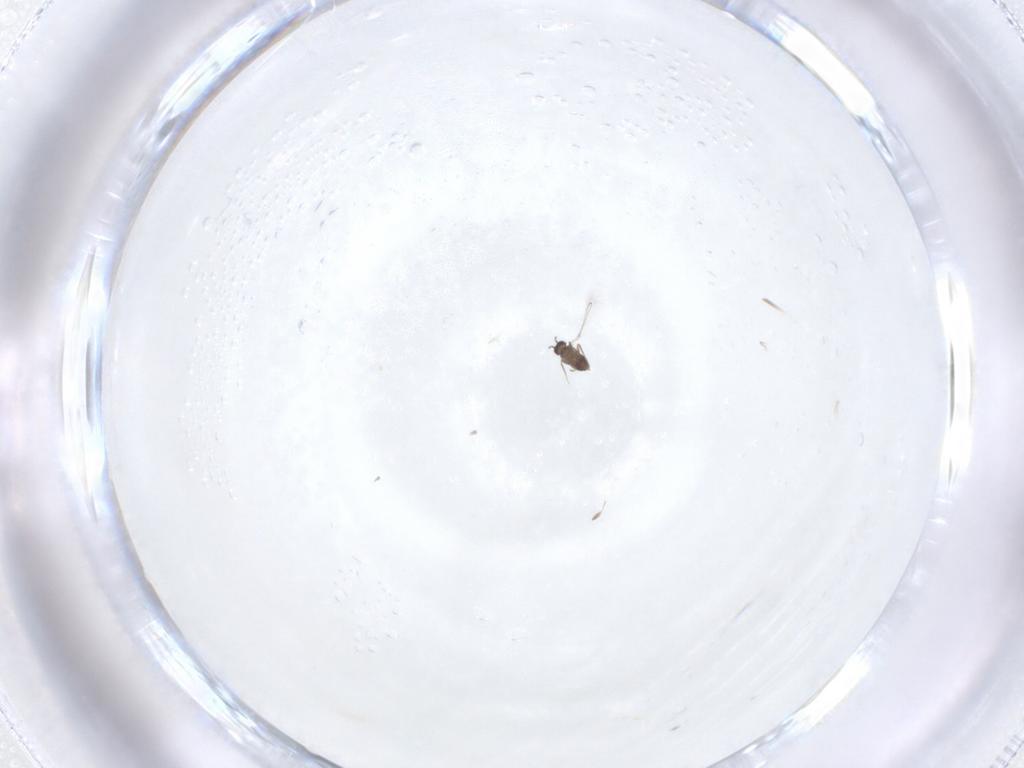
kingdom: Animalia
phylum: Arthropoda
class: Insecta
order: Hymenoptera
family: Mymaridae
